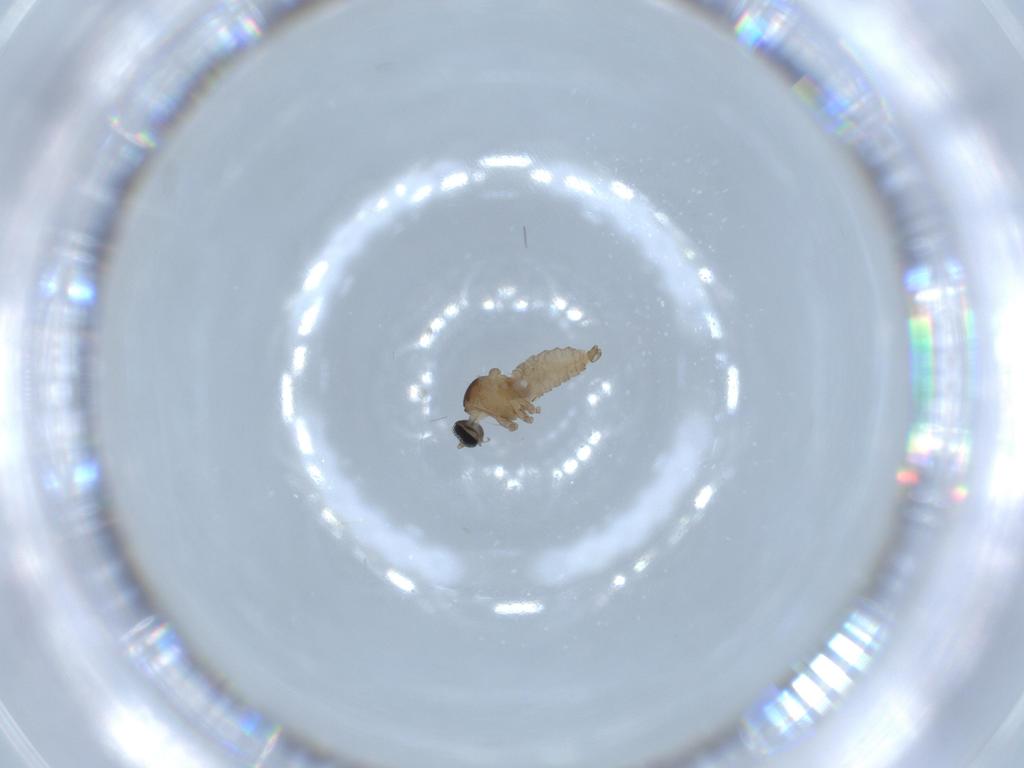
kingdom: Animalia
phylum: Arthropoda
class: Insecta
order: Diptera
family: Cecidomyiidae
